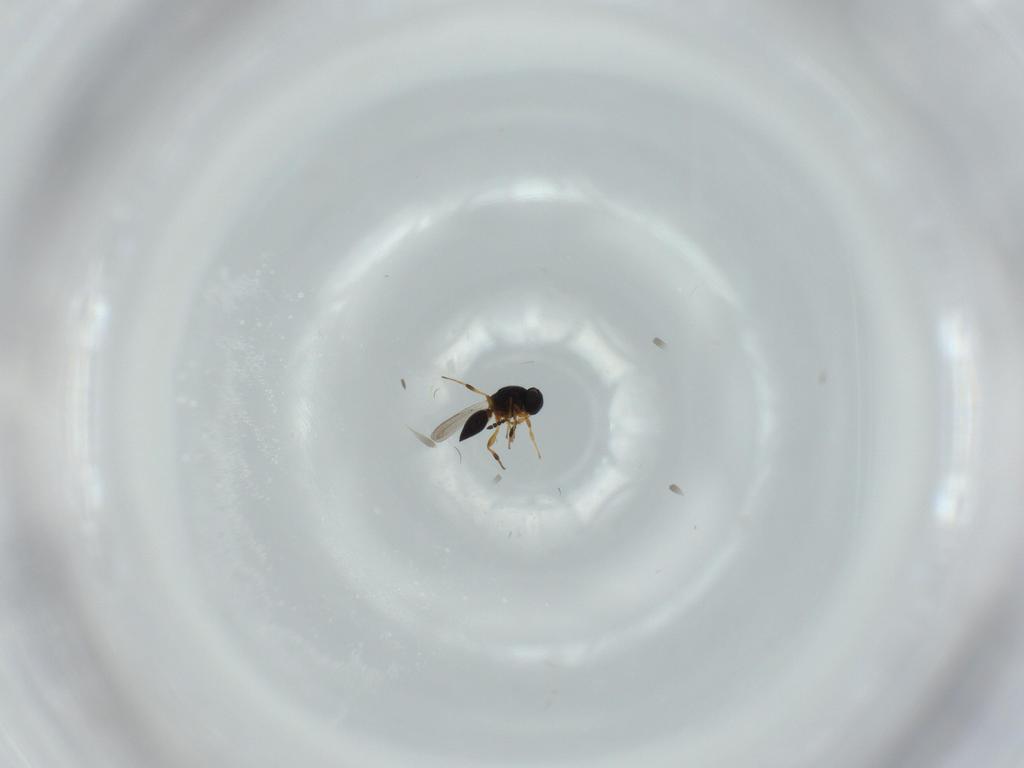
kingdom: Animalia
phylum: Arthropoda
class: Insecta
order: Hymenoptera
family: Platygastridae
